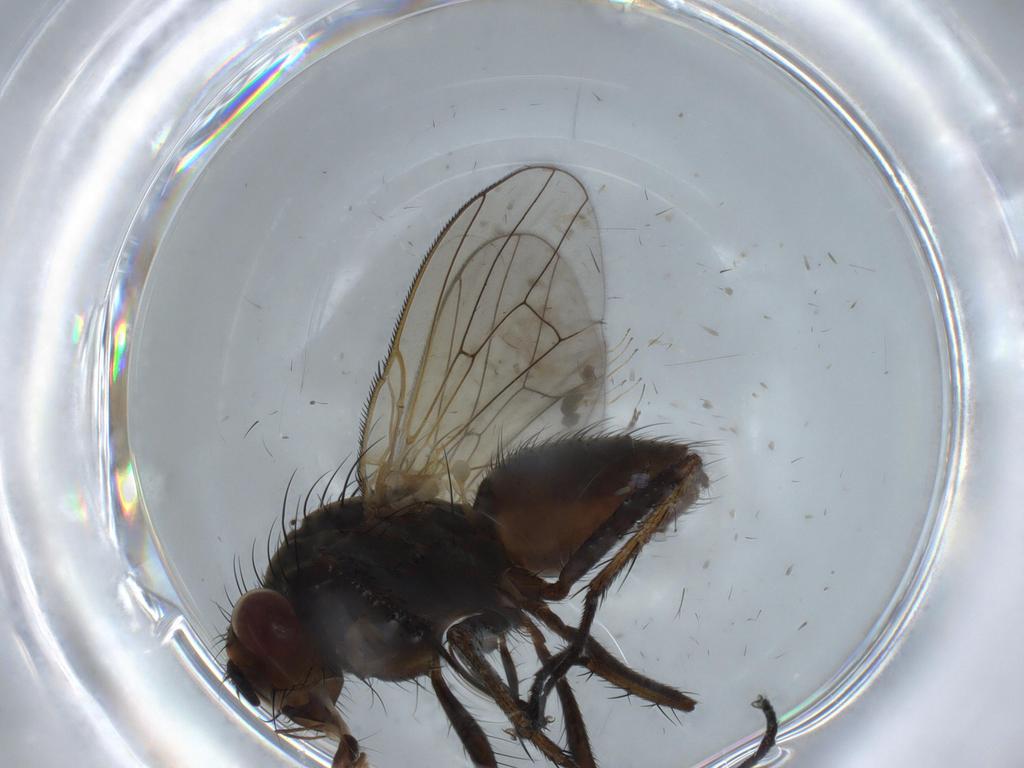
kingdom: Animalia
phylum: Arthropoda
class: Insecta
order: Diptera
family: Anthomyiidae
